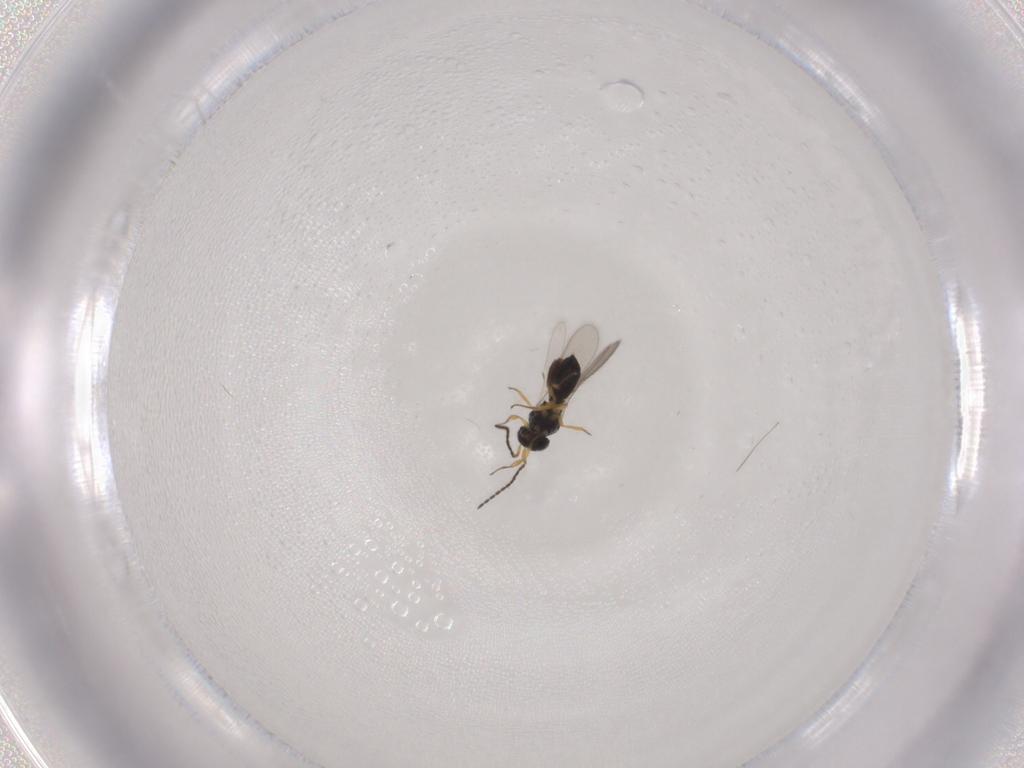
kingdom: Animalia
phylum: Arthropoda
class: Insecta
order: Hymenoptera
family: Scelionidae
